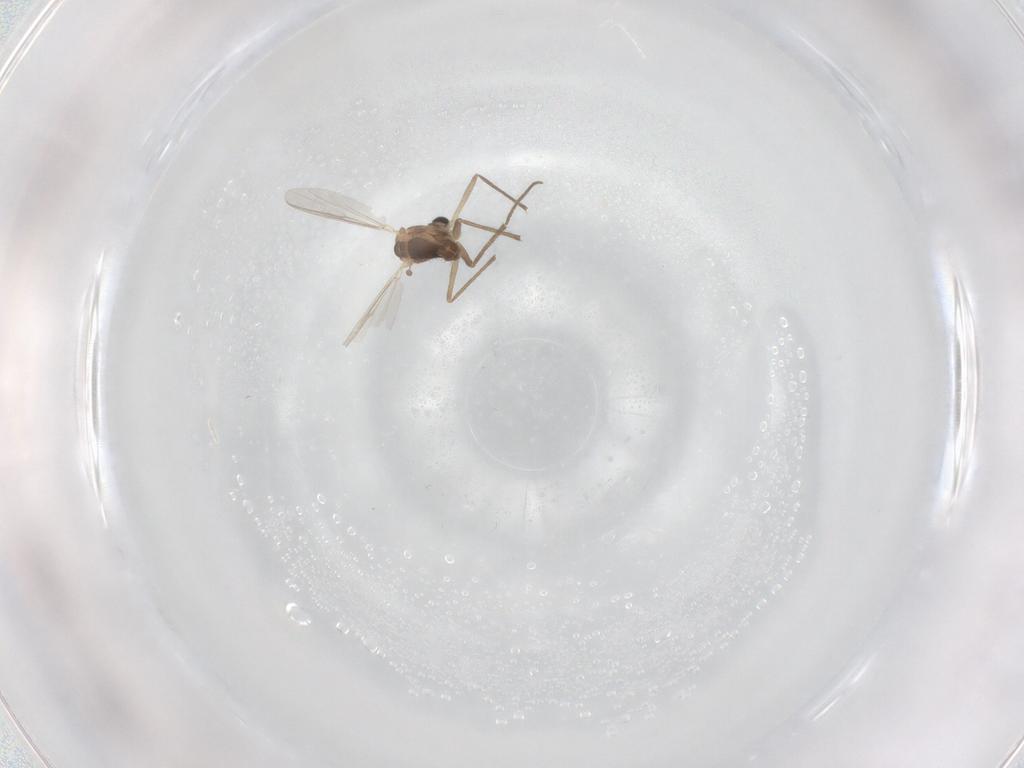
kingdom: Animalia
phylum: Arthropoda
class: Insecta
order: Diptera
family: Chironomidae
